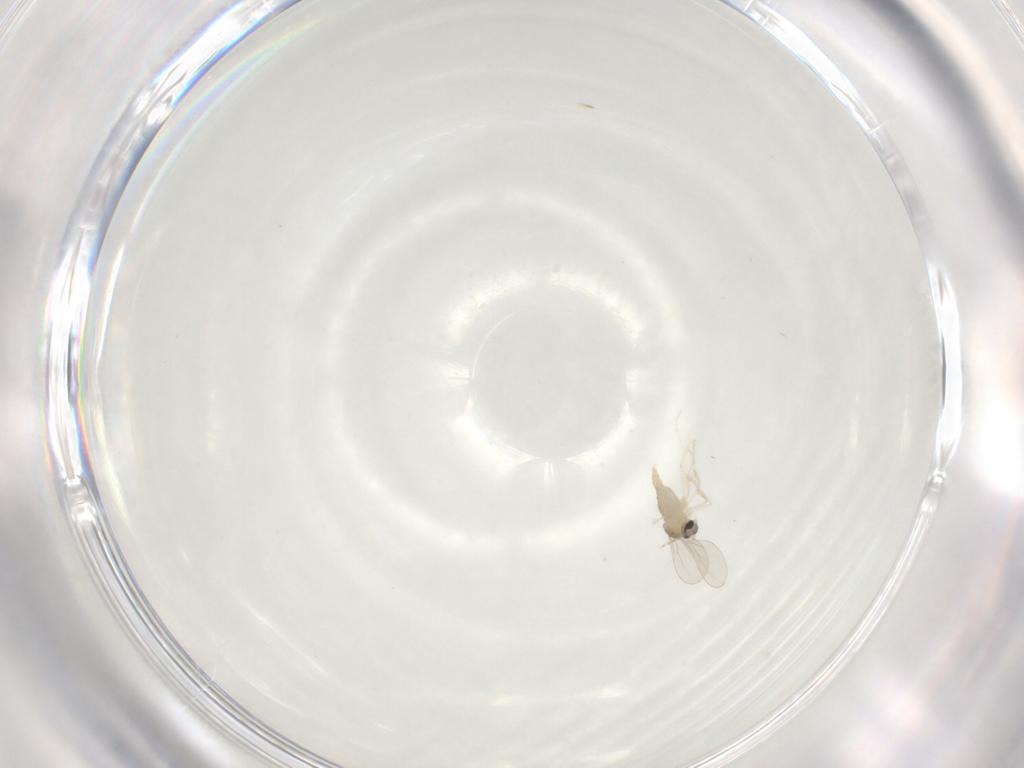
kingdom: Animalia
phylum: Arthropoda
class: Insecta
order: Diptera
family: Cecidomyiidae
